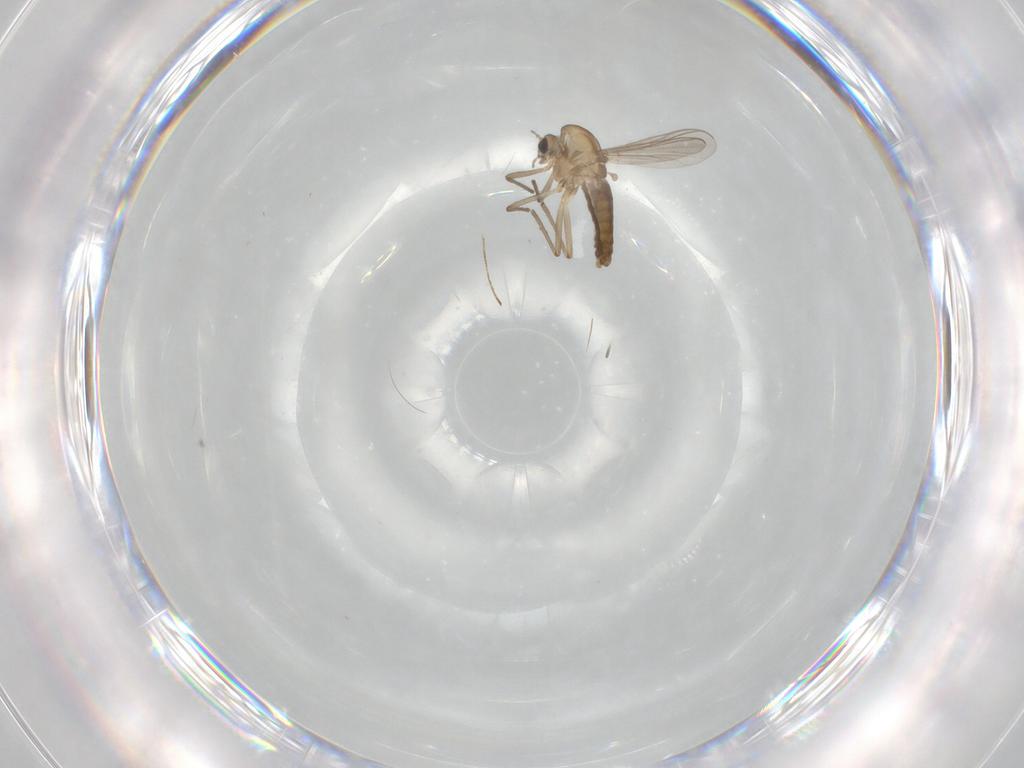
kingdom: Animalia
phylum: Arthropoda
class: Insecta
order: Diptera
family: Chironomidae
